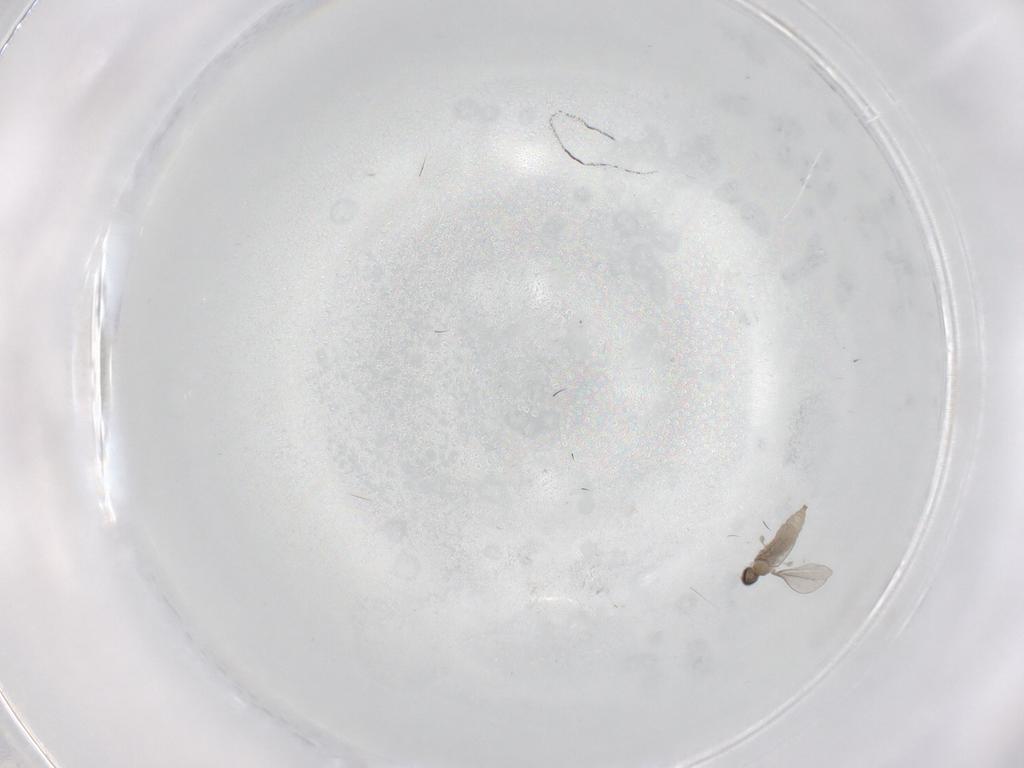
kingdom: Animalia
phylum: Arthropoda
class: Insecta
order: Diptera
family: Cecidomyiidae
